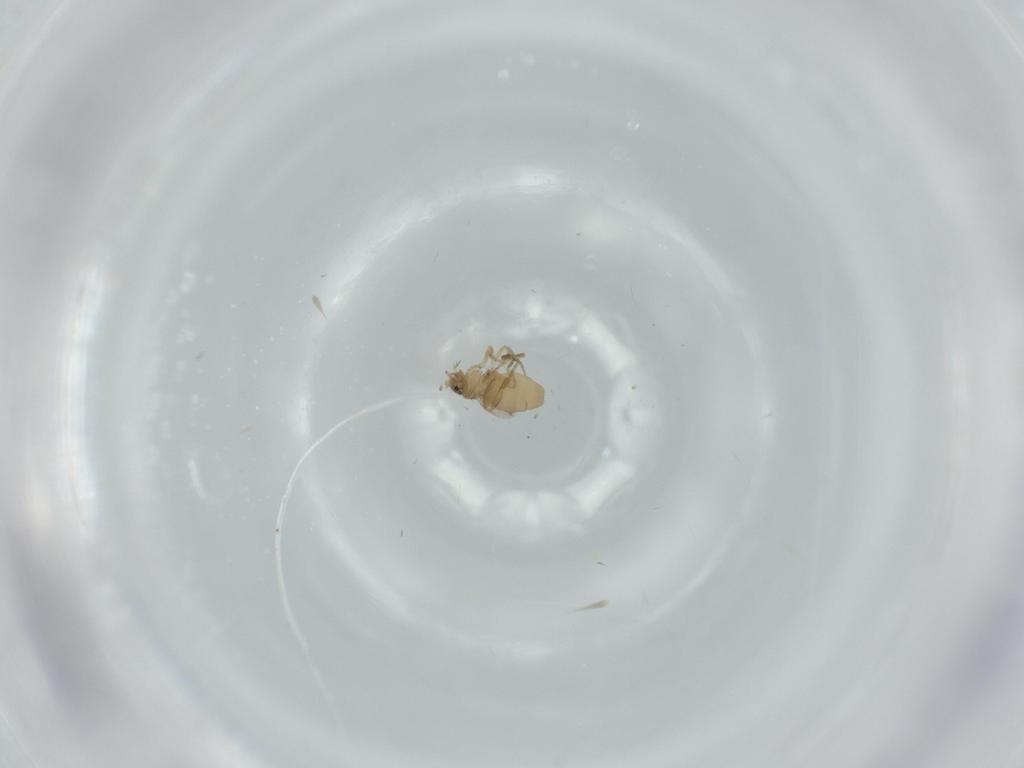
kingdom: Animalia
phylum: Arthropoda
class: Insecta
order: Diptera
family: Phoridae
